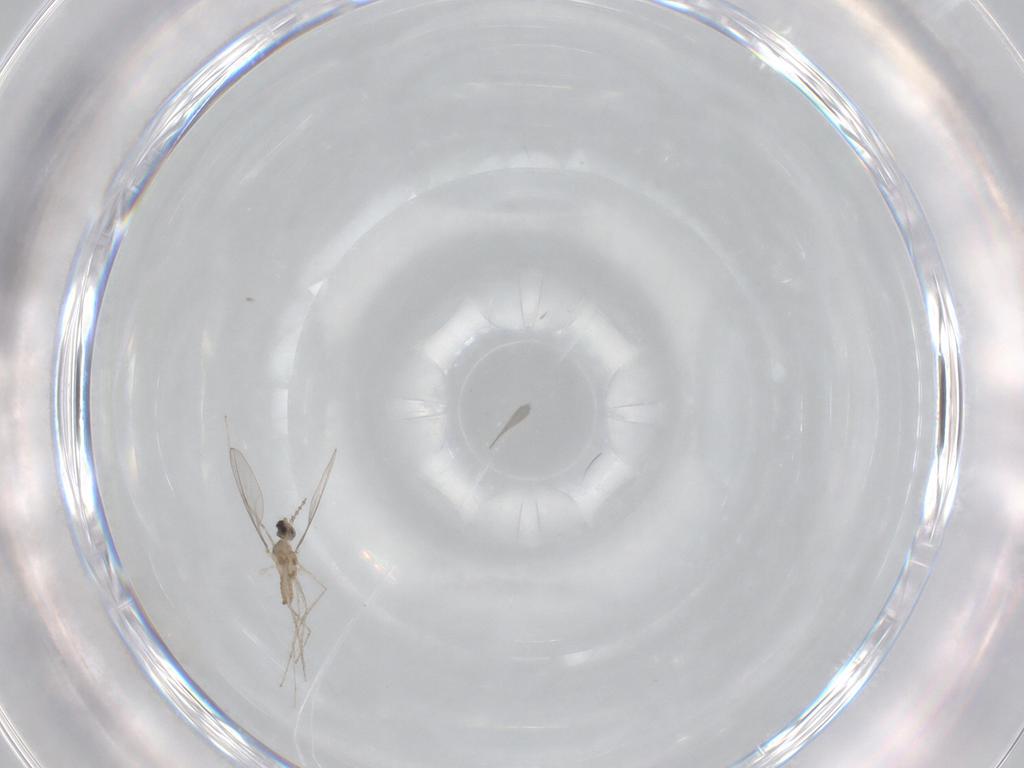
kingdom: Animalia
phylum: Arthropoda
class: Insecta
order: Diptera
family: Cecidomyiidae
